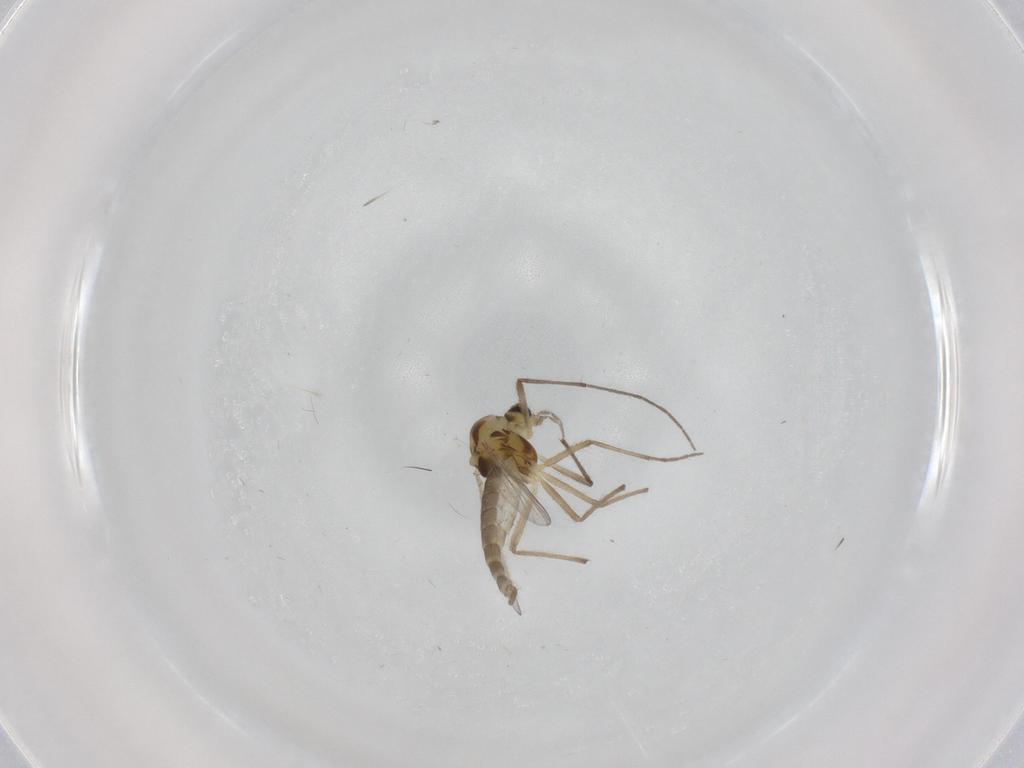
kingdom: Animalia
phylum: Arthropoda
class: Insecta
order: Diptera
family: Chironomidae
